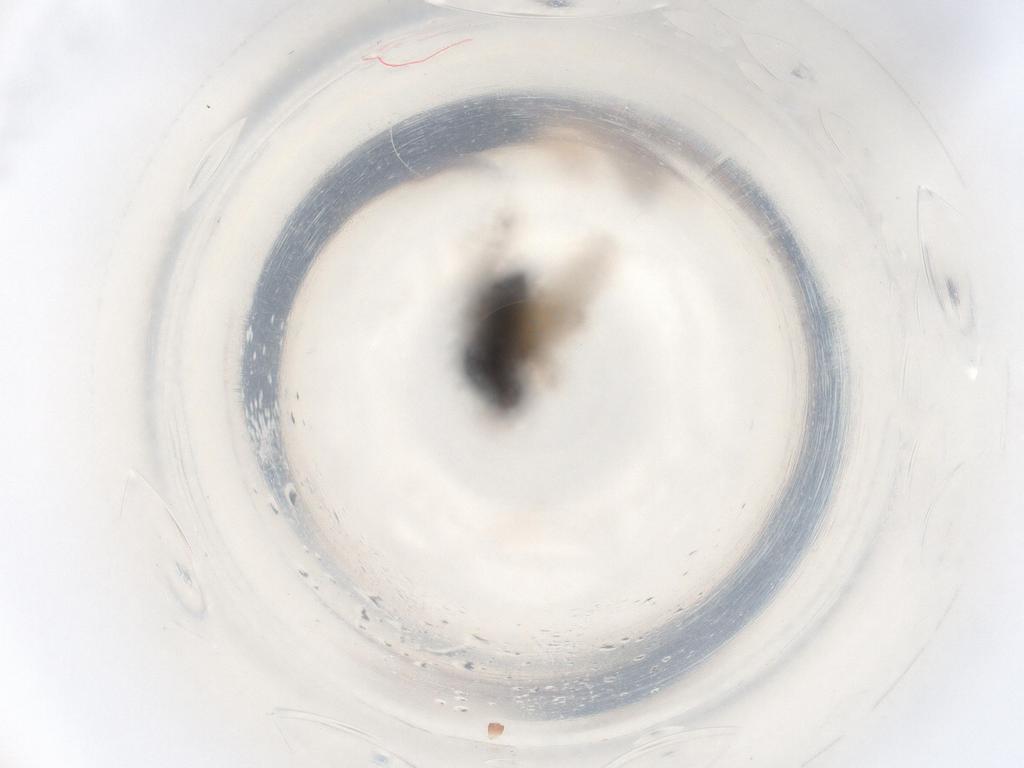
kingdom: Animalia
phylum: Arthropoda
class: Insecta
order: Diptera
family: Ephydridae
